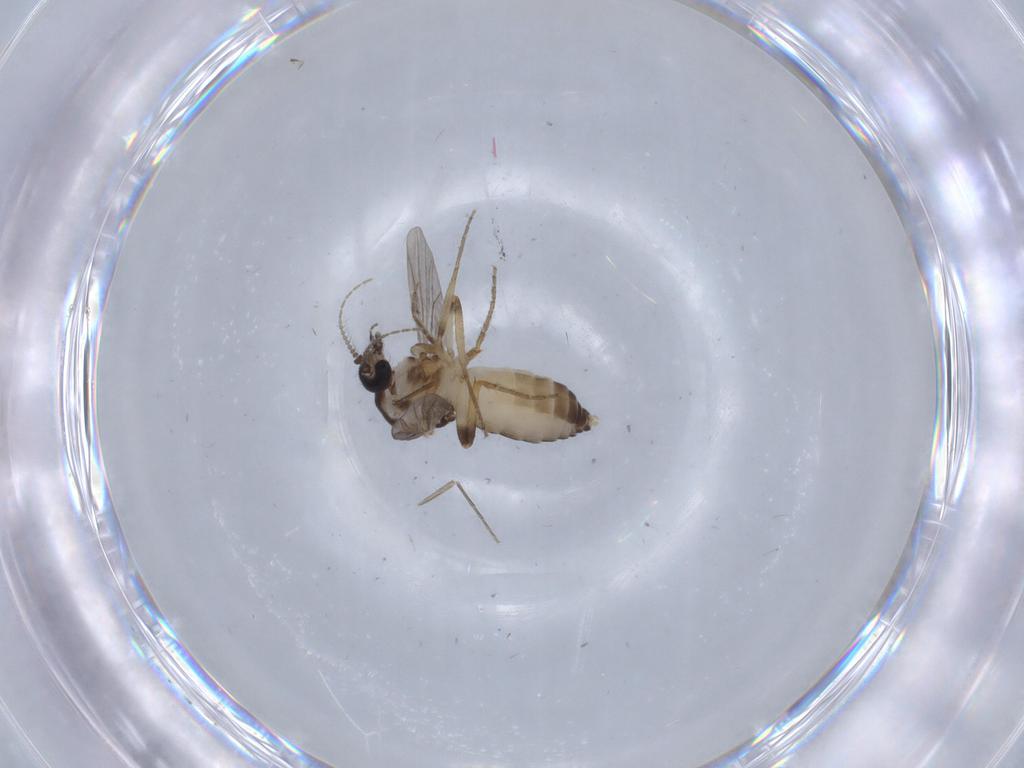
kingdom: Animalia
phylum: Arthropoda
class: Insecta
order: Diptera
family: Ceratopogonidae
